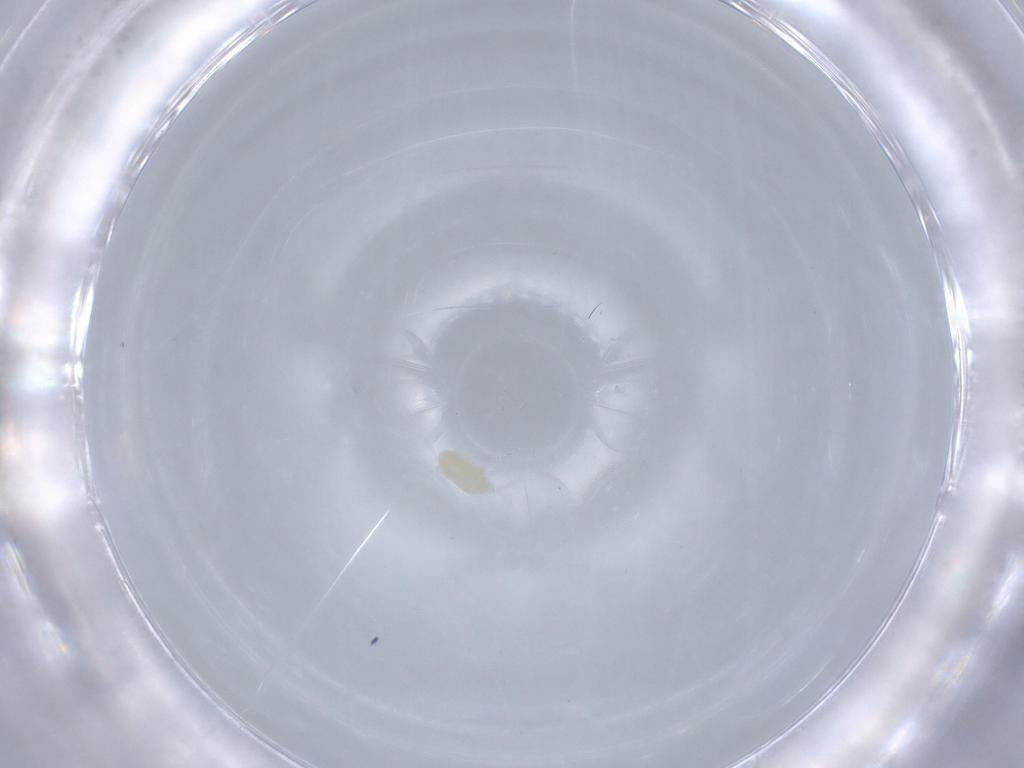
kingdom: Animalia
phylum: Arthropoda
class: Arachnida
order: Trombidiformes
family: Eupodidae
